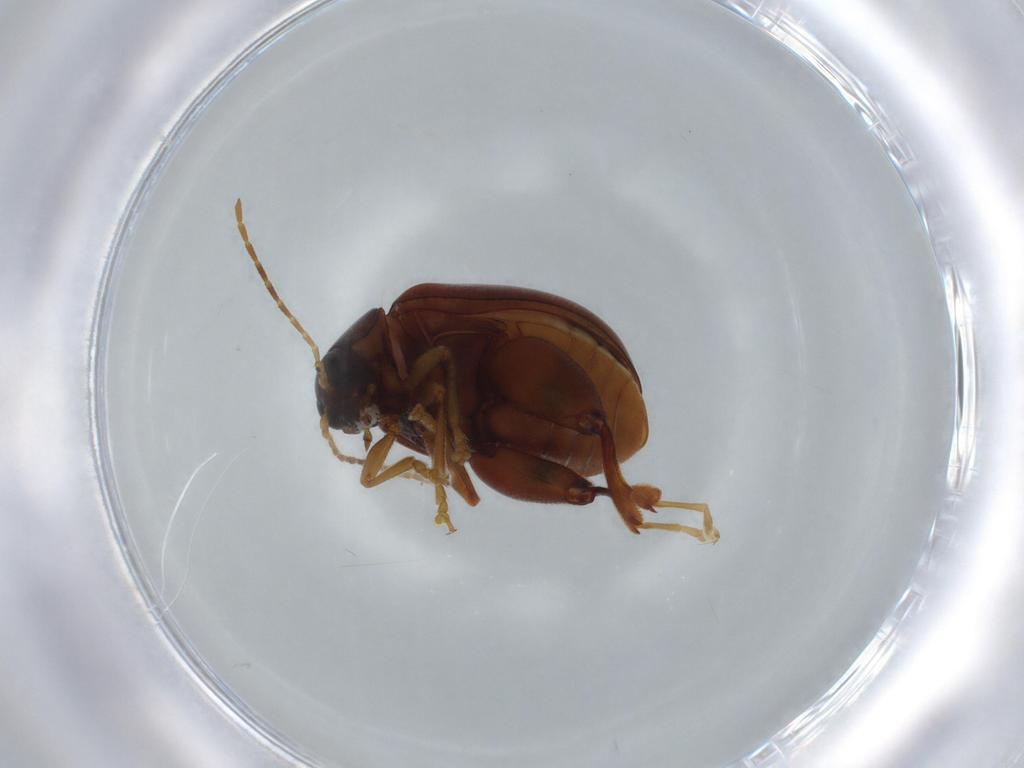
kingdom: Animalia
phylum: Arthropoda
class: Insecta
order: Coleoptera
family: Chrysomelidae
